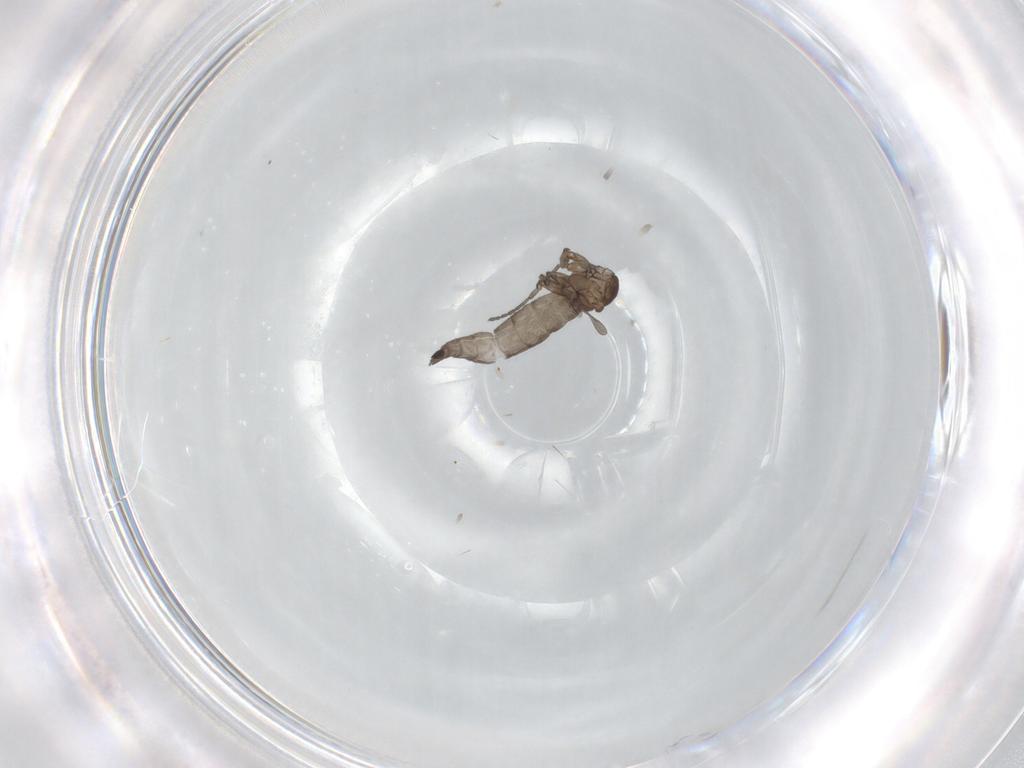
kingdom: Animalia
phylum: Arthropoda
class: Insecta
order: Diptera
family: Sciaridae
